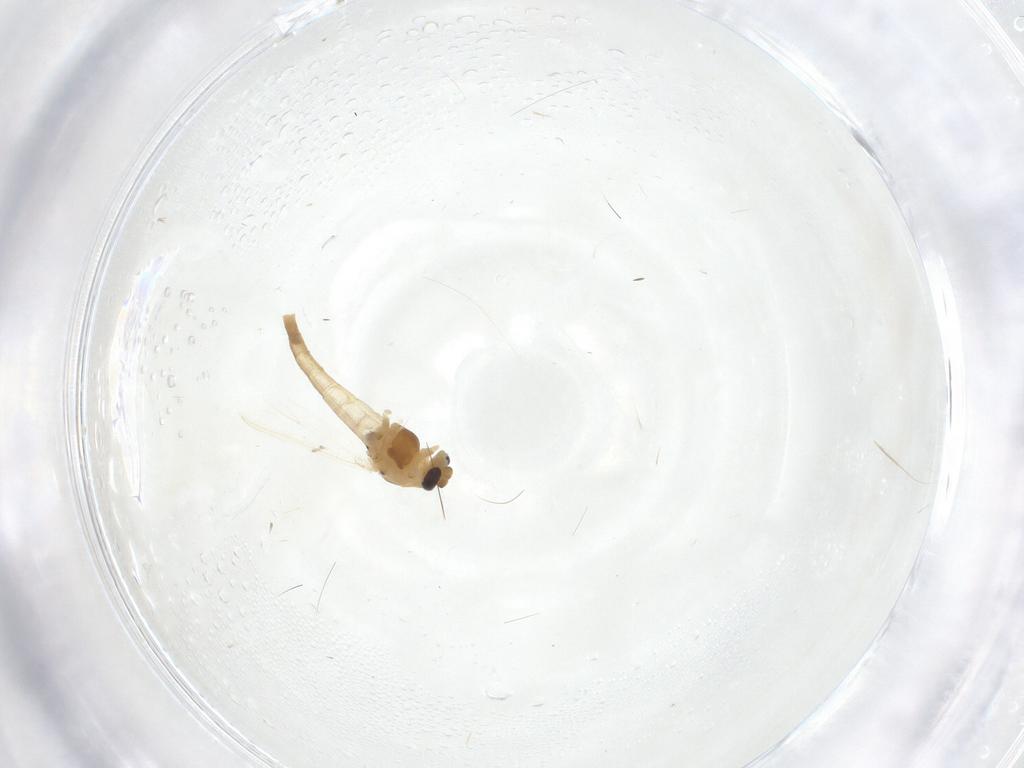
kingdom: Animalia
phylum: Arthropoda
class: Insecta
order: Diptera
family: Chironomidae
